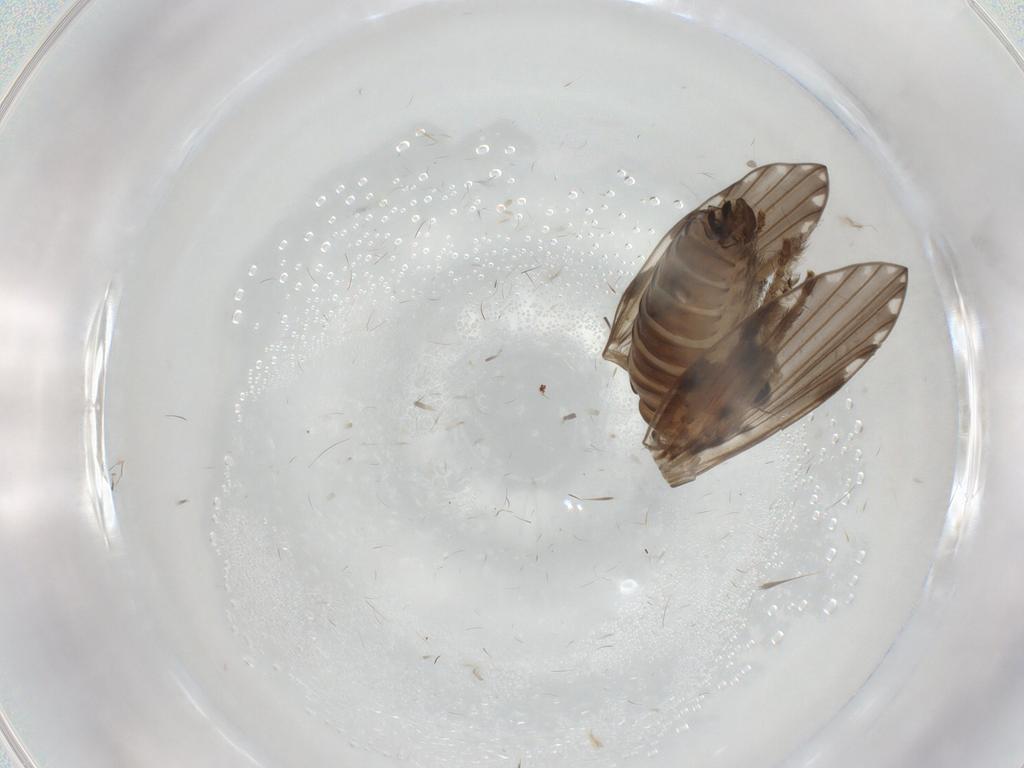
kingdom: Animalia
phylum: Arthropoda
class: Insecta
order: Diptera
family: Psychodidae
